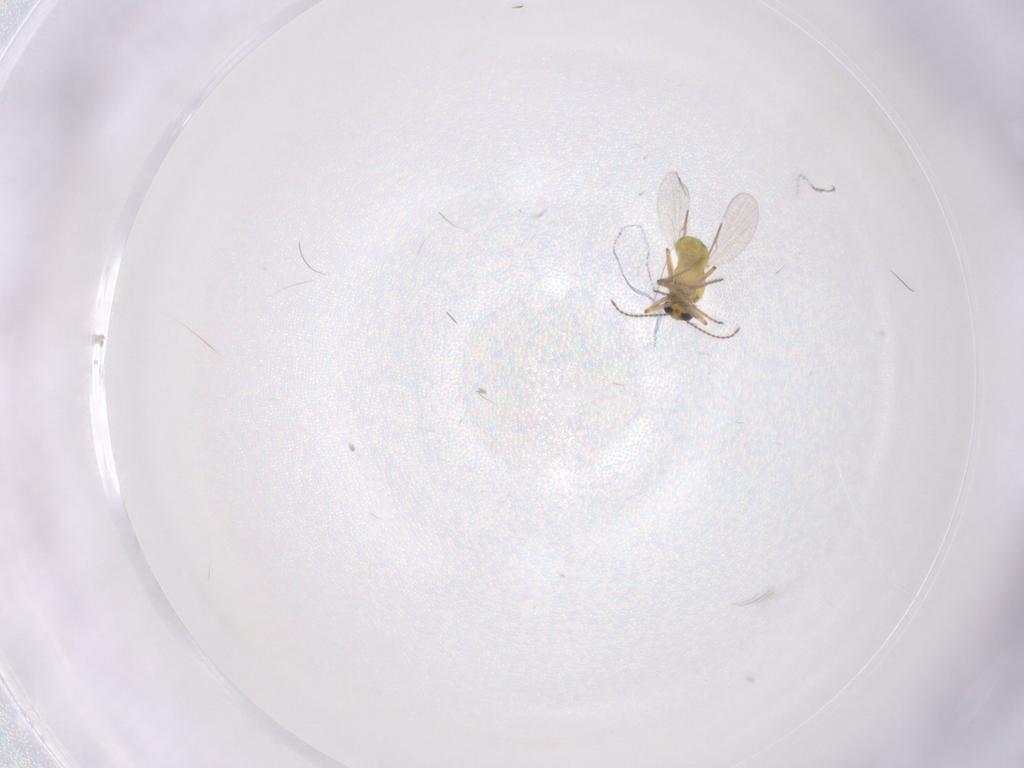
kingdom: Animalia
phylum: Arthropoda
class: Insecta
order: Diptera
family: Ceratopogonidae
